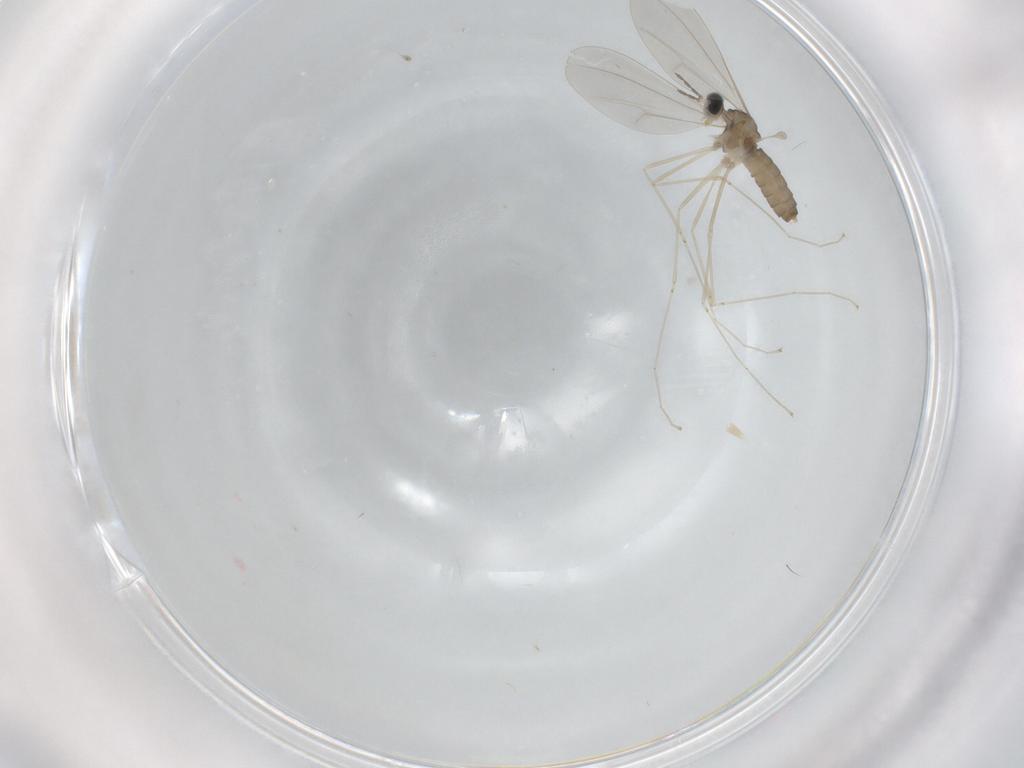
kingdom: Animalia
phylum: Arthropoda
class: Insecta
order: Diptera
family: Cecidomyiidae
